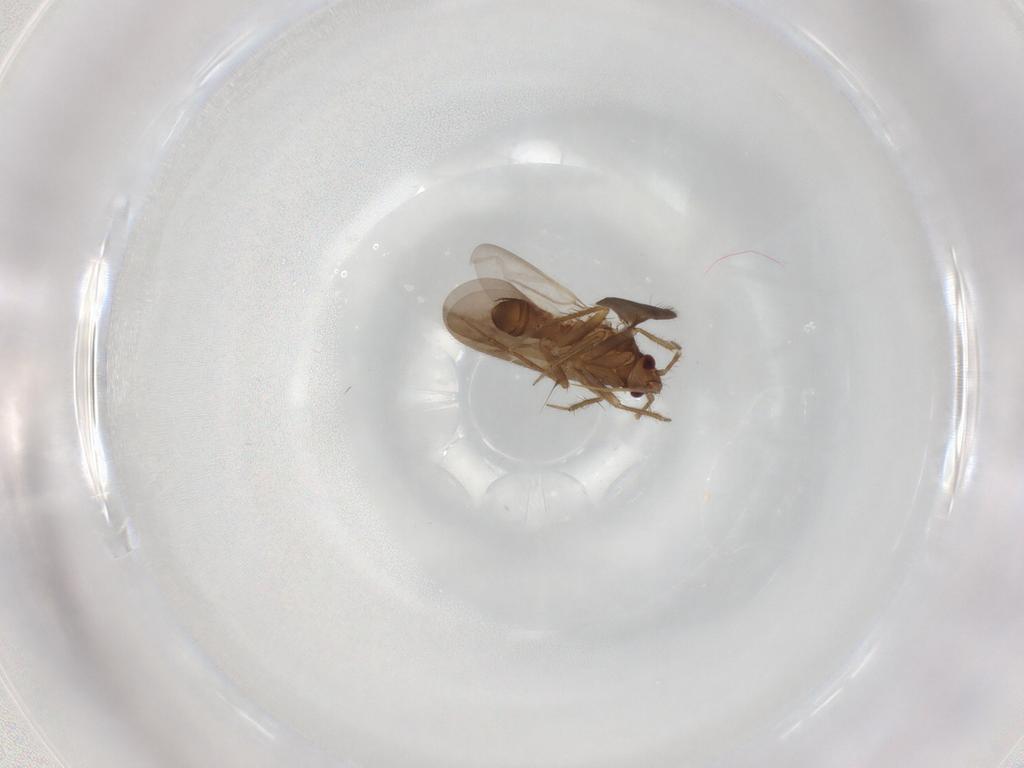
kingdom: Animalia
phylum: Arthropoda
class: Insecta
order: Hemiptera
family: Ceratocombidae
